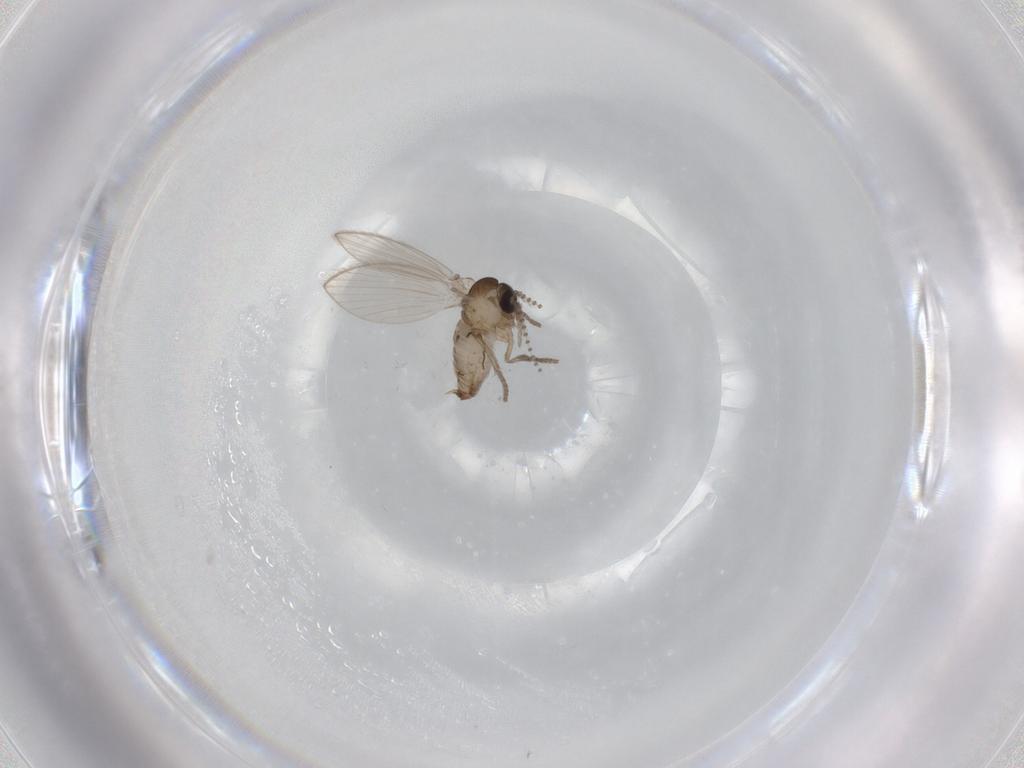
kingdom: Animalia
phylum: Arthropoda
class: Insecta
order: Diptera
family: Psychodidae
